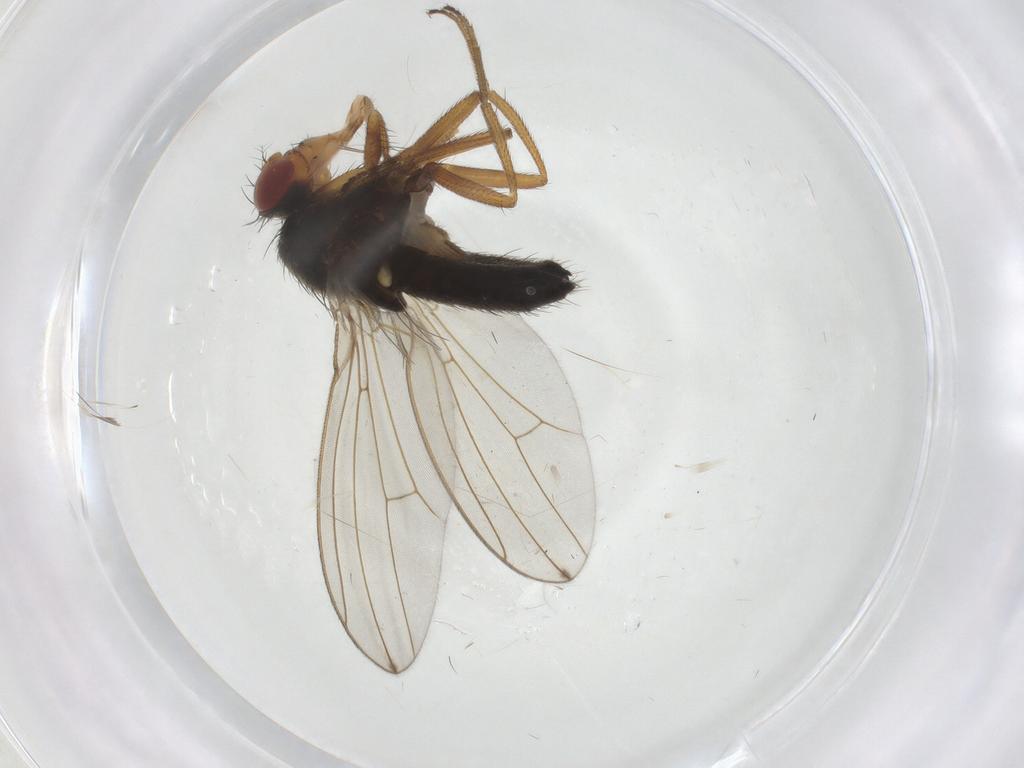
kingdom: Animalia
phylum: Arthropoda
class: Insecta
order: Diptera
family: Drosophilidae
